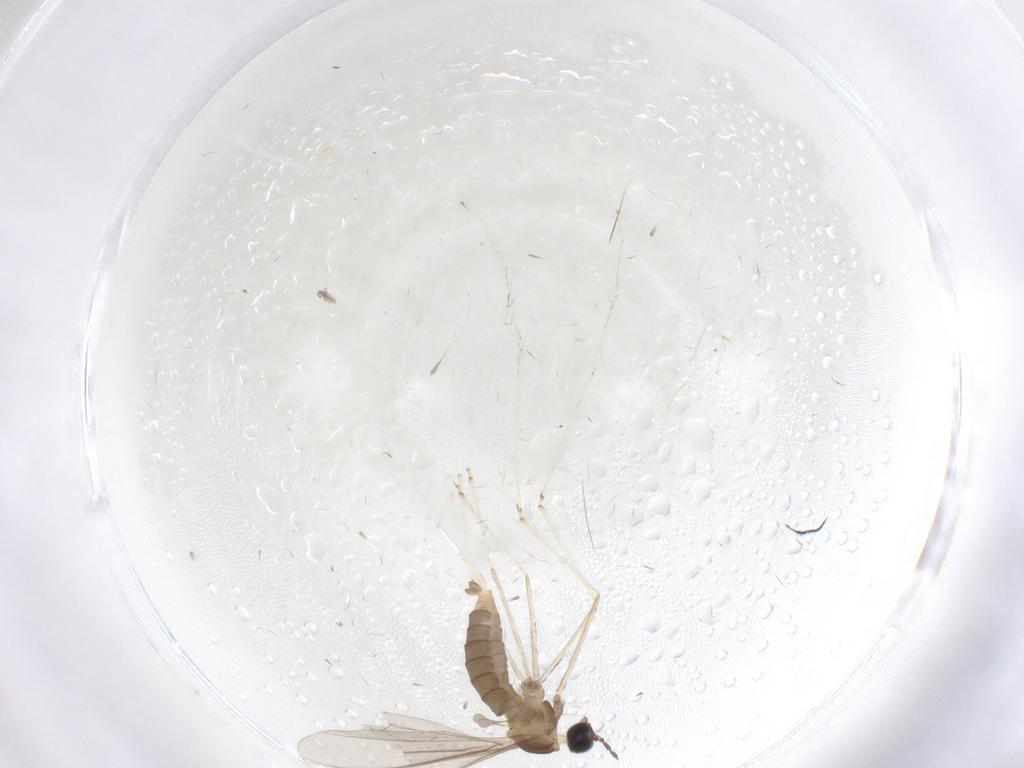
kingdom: Animalia
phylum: Arthropoda
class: Insecta
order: Diptera
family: Cecidomyiidae
